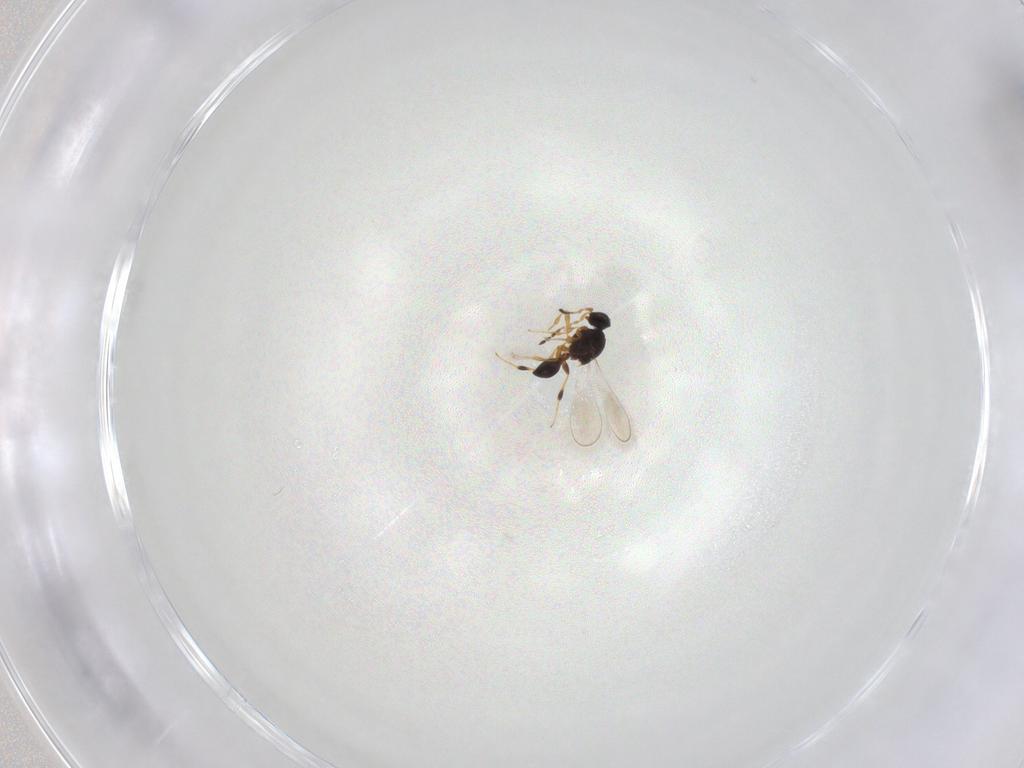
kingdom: Animalia
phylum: Arthropoda
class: Insecta
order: Hymenoptera
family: Platygastridae
